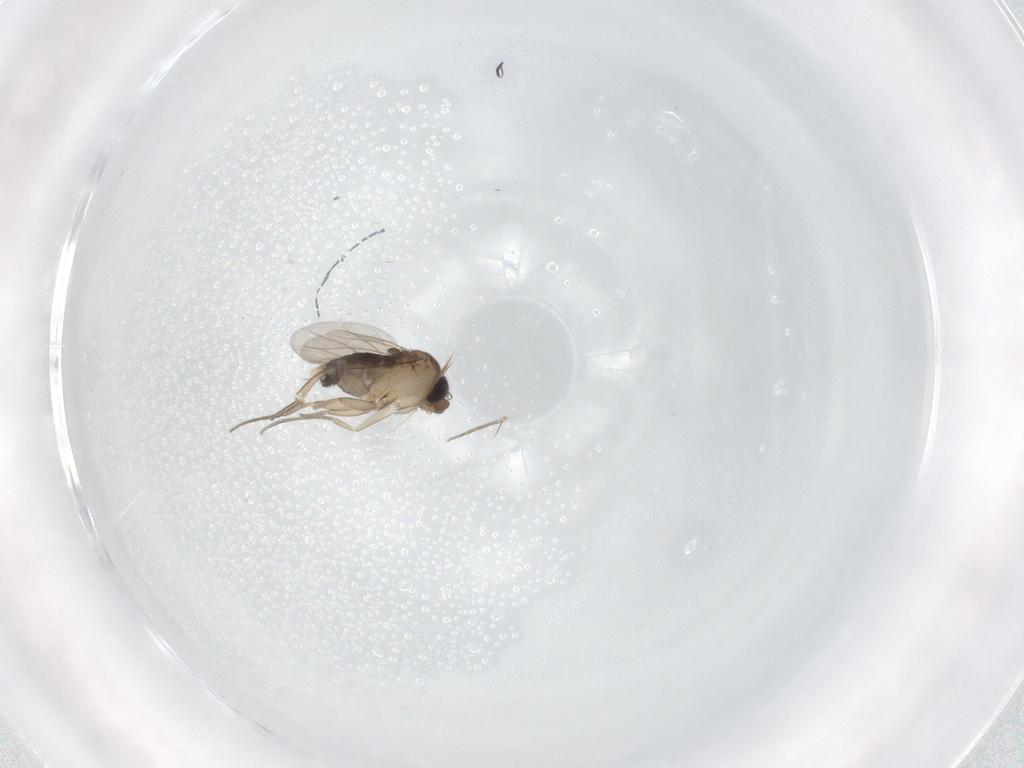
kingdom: Animalia
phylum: Arthropoda
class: Insecta
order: Diptera
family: Phoridae
